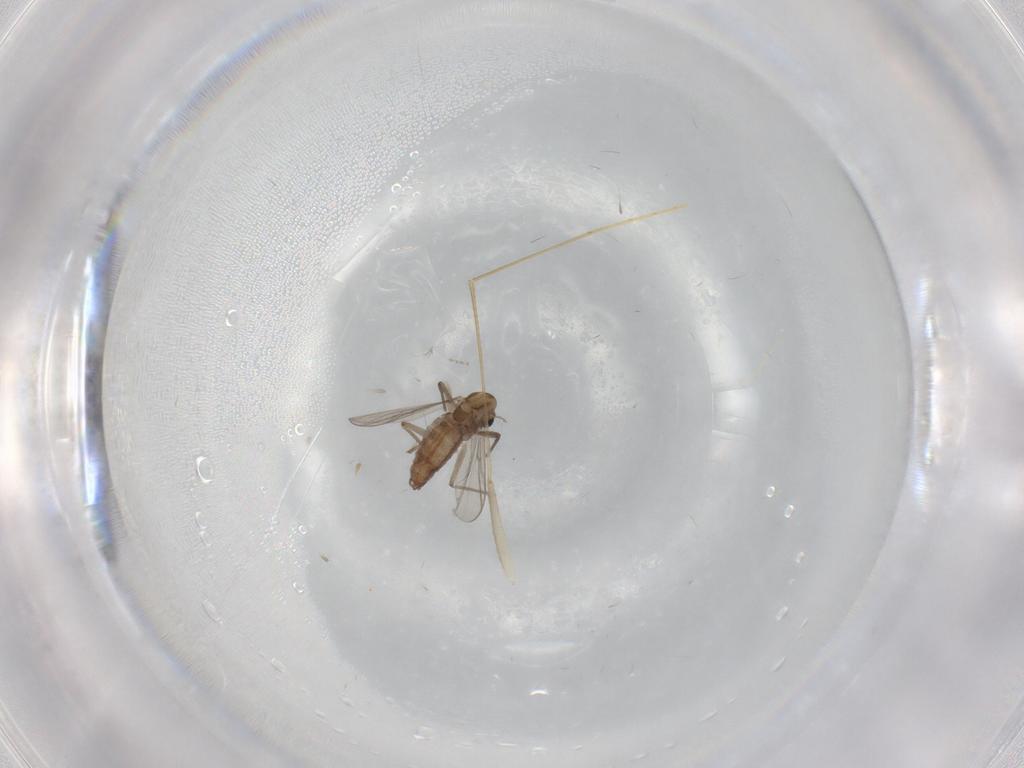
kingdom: Animalia
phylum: Arthropoda
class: Insecta
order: Diptera
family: Chironomidae
